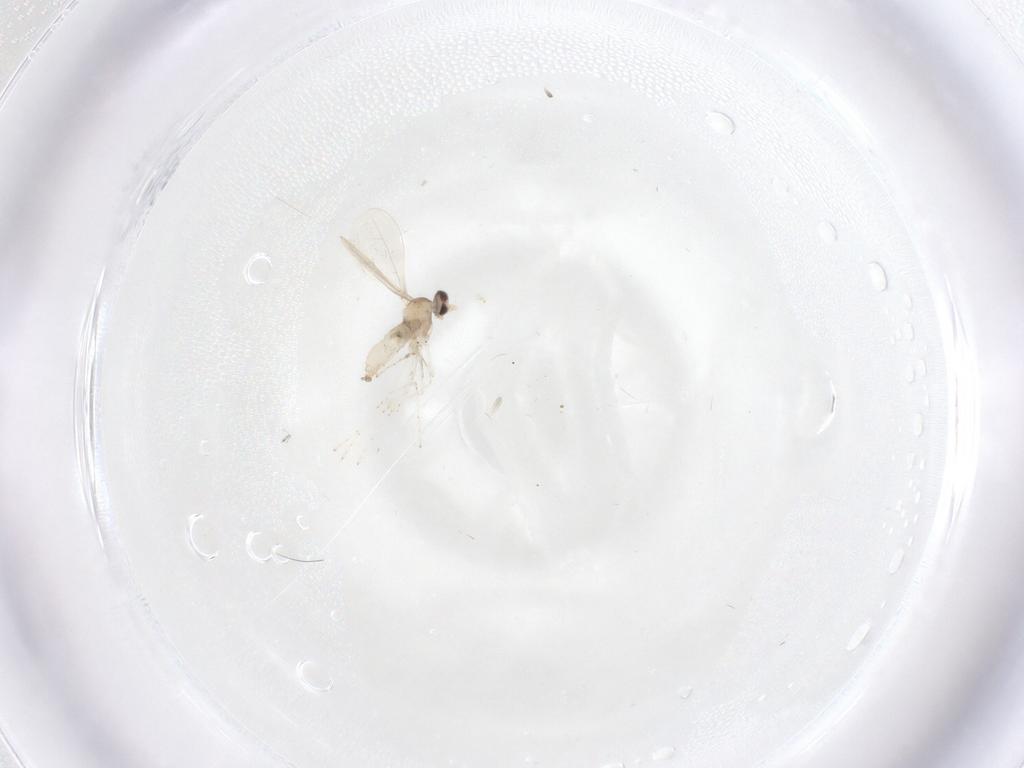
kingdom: Animalia
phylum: Arthropoda
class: Insecta
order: Diptera
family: Cecidomyiidae
